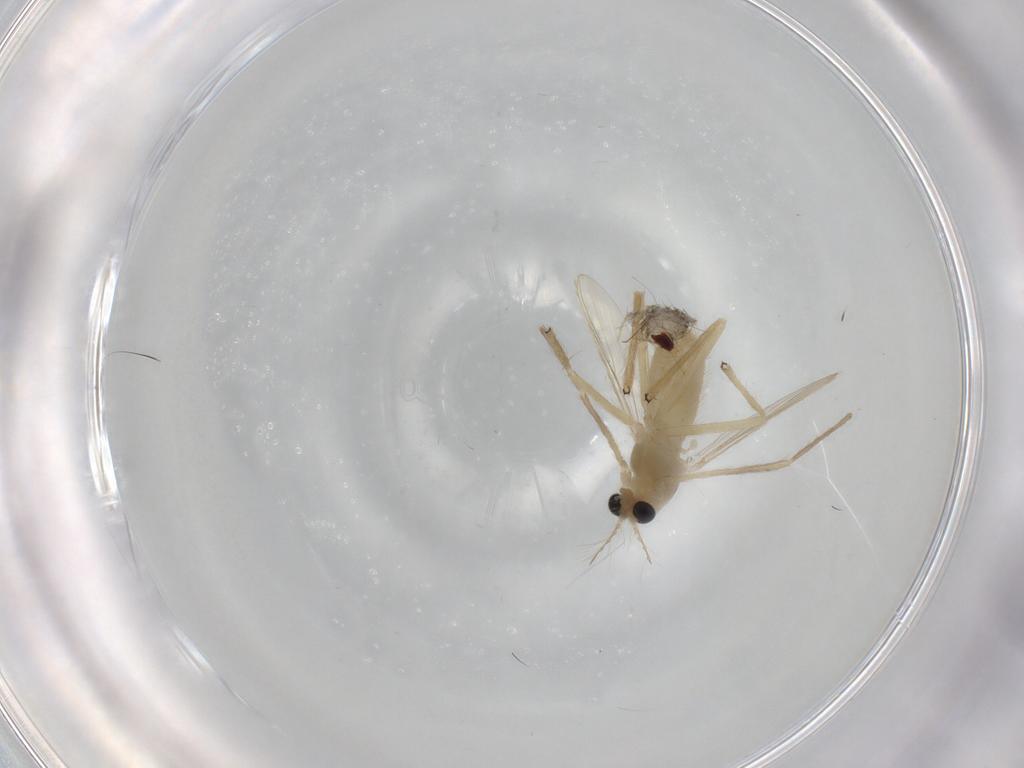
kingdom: Animalia
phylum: Arthropoda
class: Insecta
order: Diptera
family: Chironomidae
